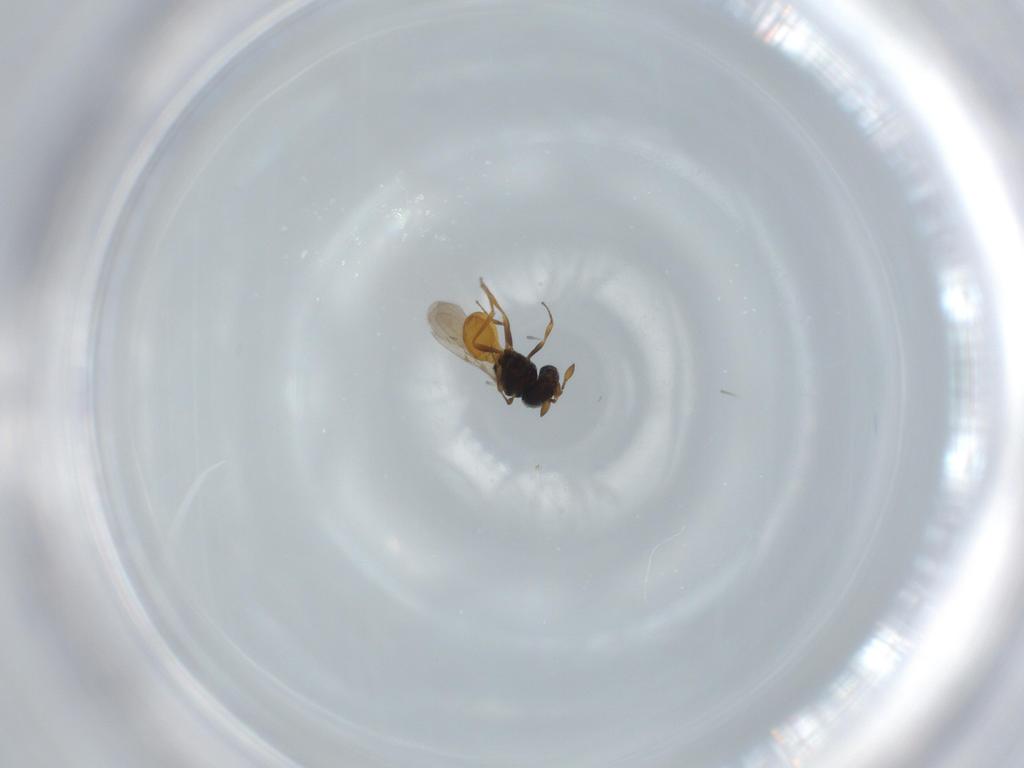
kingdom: Animalia
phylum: Arthropoda
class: Insecta
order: Hymenoptera
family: Scelionidae
